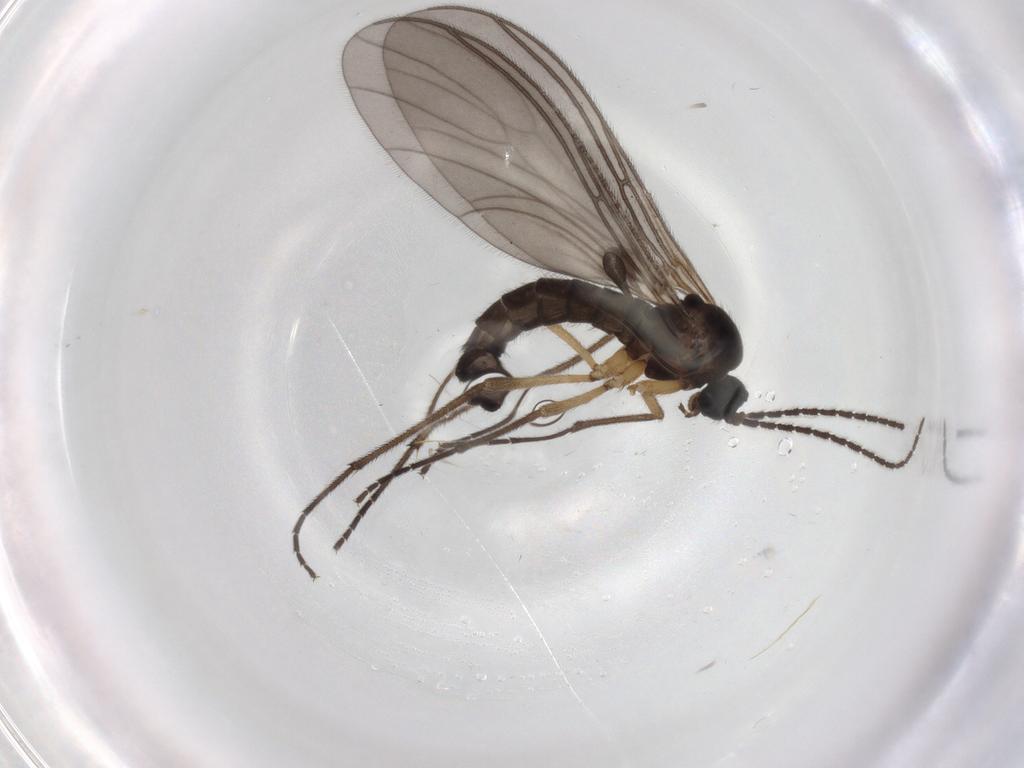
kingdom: Animalia
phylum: Arthropoda
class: Insecta
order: Diptera
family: Sciaridae
